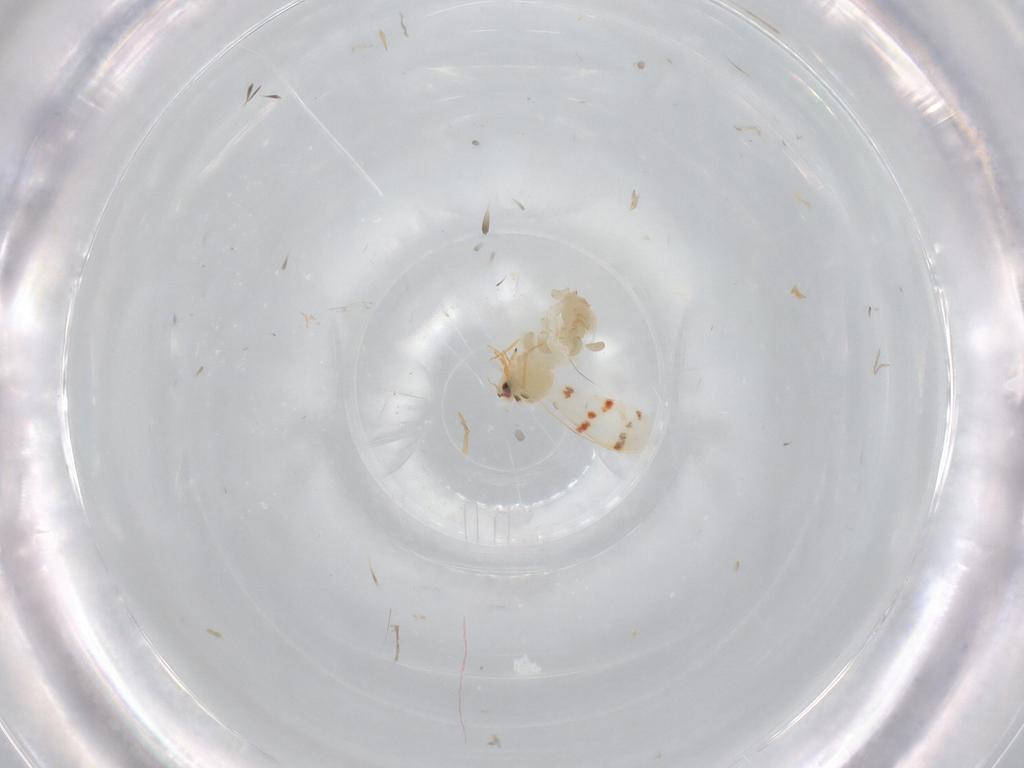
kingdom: Animalia
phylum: Arthropoda
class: Insecta
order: Hemiptera
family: Aleyrodidae
